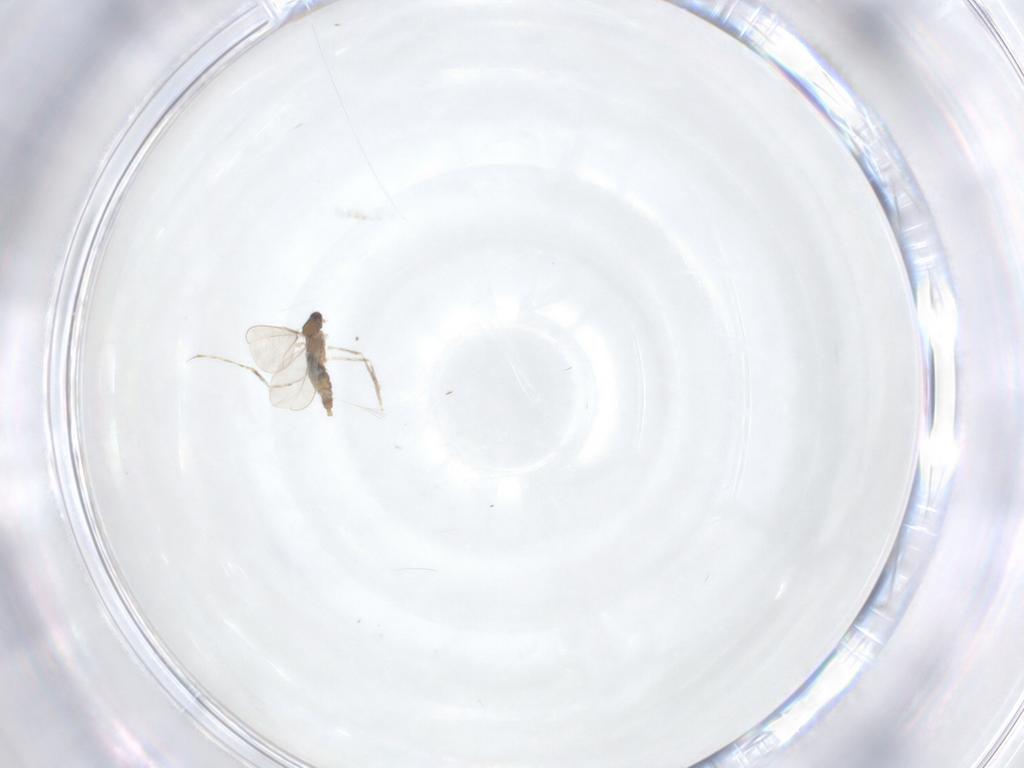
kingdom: Animalia
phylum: Arthropoda
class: Insecta
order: Diptera
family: Cecidomyiidae
